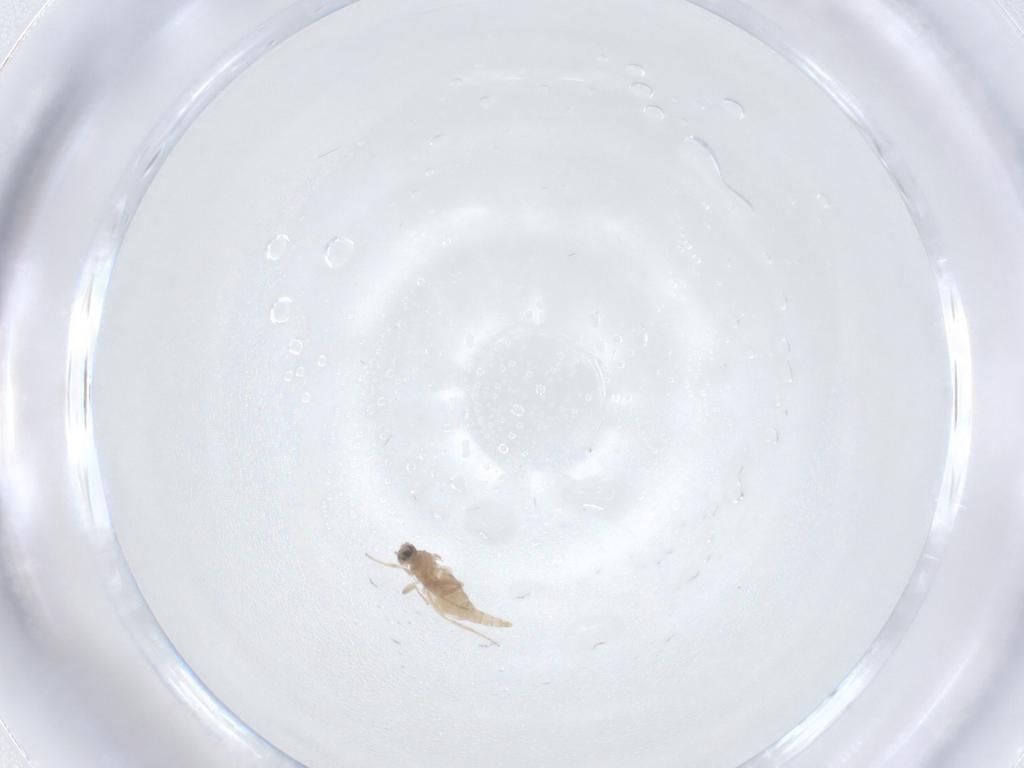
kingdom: Animalia
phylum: Arthropoda
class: Insecta
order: Diptera
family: Cecidomyiidae
